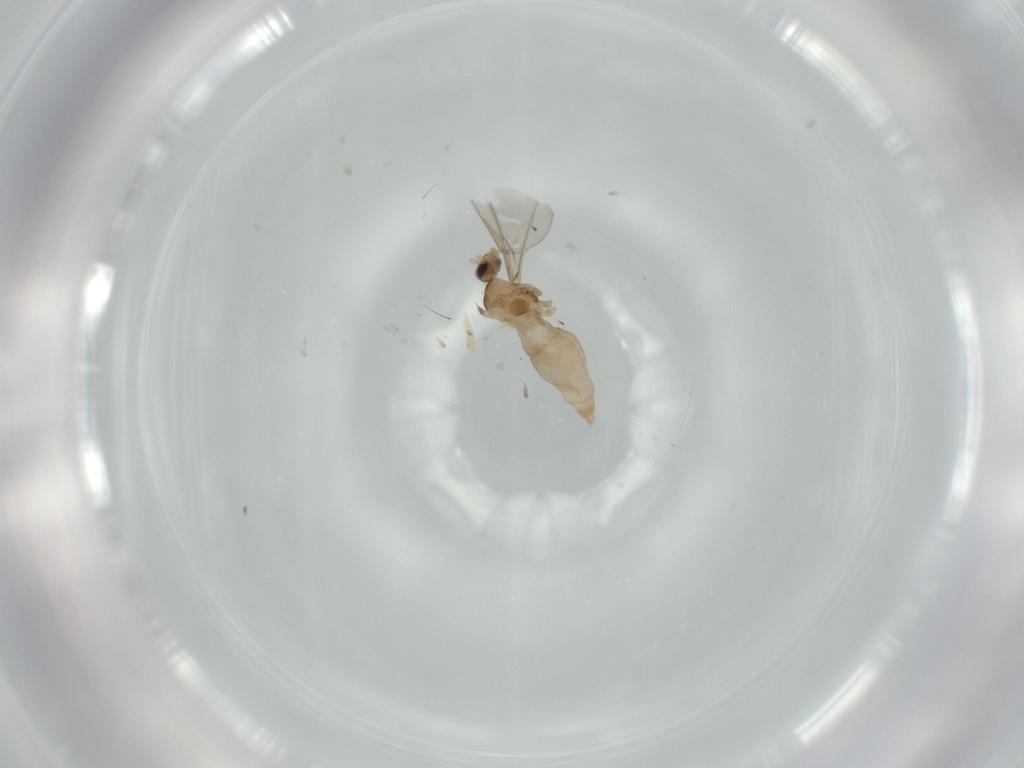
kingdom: Animalia
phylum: Arthropoda
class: Insecta
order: Diptera
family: Cecidomyiidae
